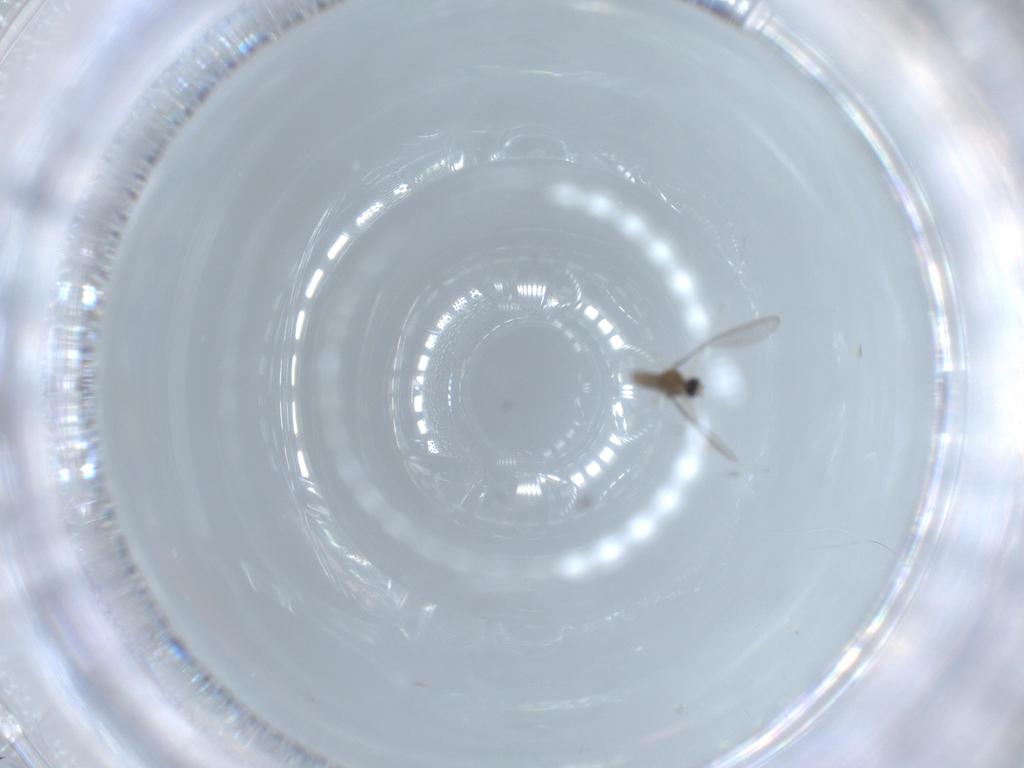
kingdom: Animalia
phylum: Arthropoda
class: Insecta
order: Diptera
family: Cecidomyiidae
